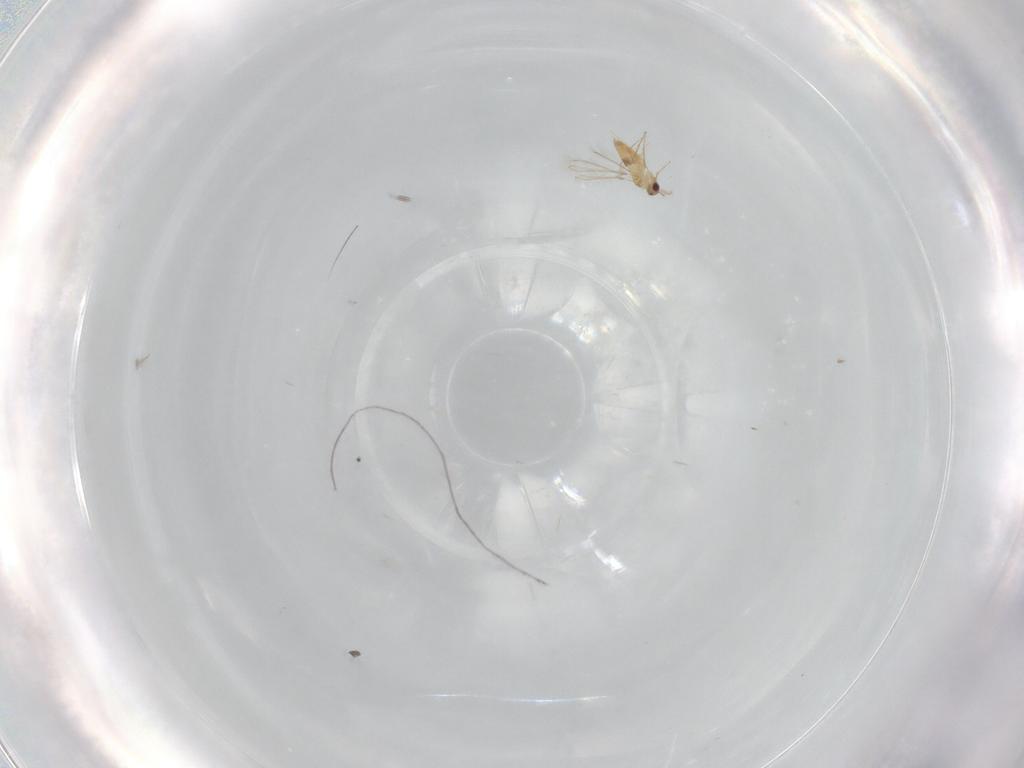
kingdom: Animalia
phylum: Arthropoda
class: Insecta
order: Hymenoptera
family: Mymaridae
